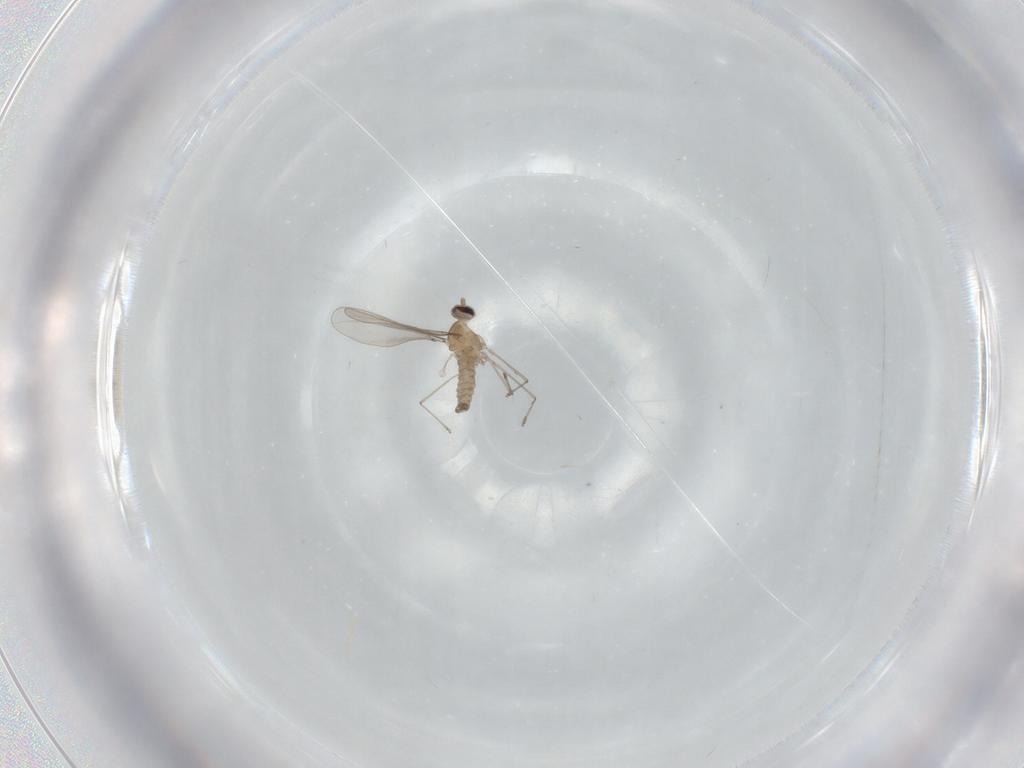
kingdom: Animalia
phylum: Arthropoda
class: Insecta
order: Diptera
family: Cecidomyiidae
